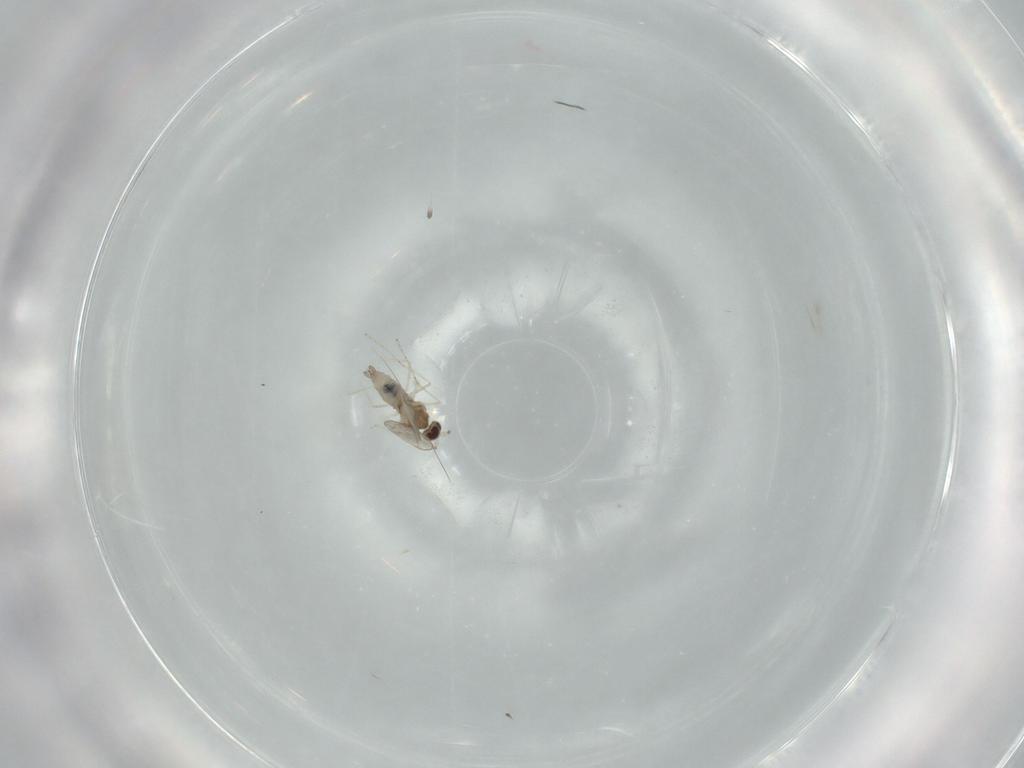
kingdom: Animalia
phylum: Arthropoda
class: Insecta
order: Diptera
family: Cecidomyiidae
